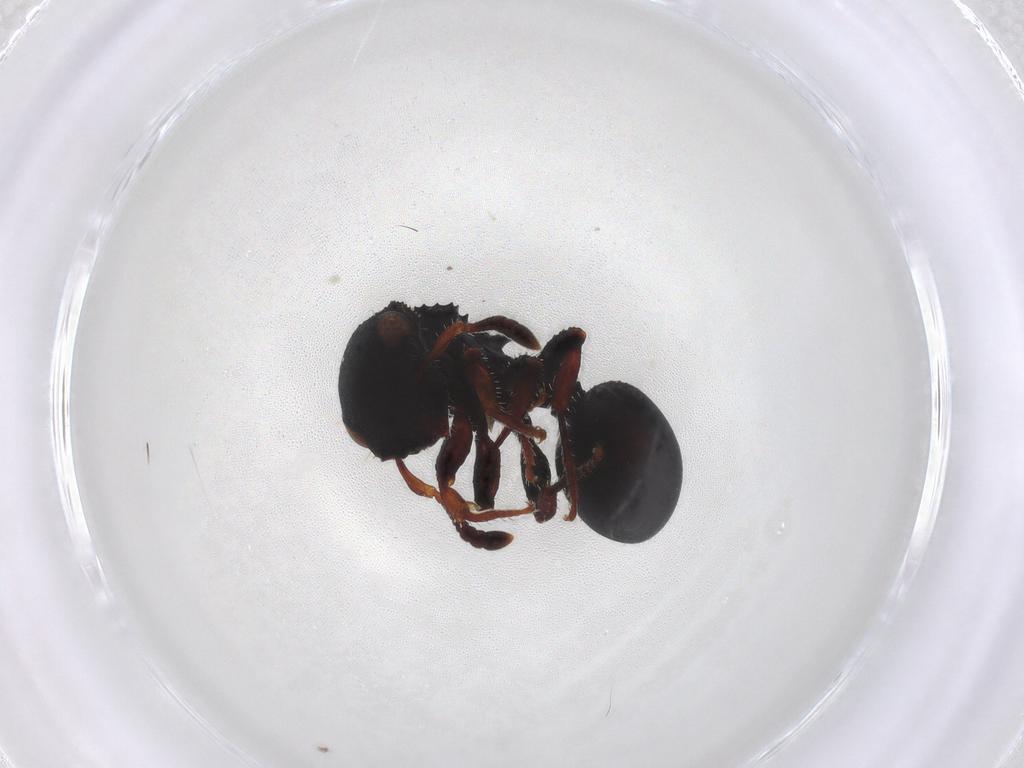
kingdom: Animalia
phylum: Arthropoda
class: Insecta
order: Hymenoptera
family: Formicidae
